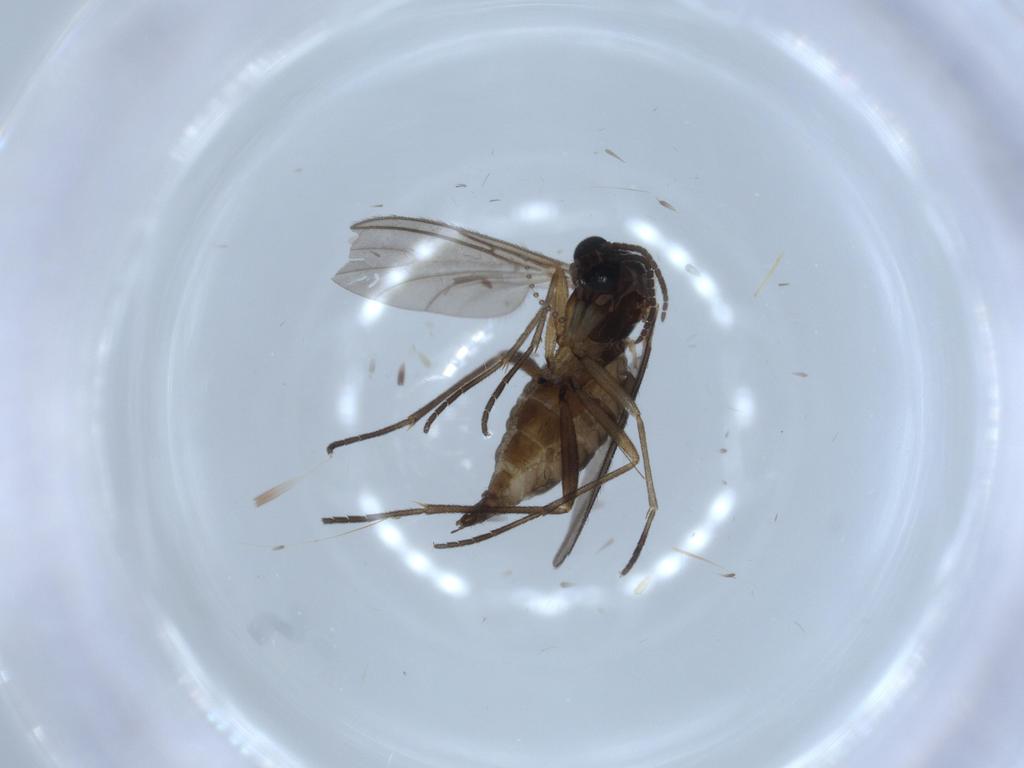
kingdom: Animalia
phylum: Arthropoda
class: Insecta
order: Diptera
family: Sciaridae
